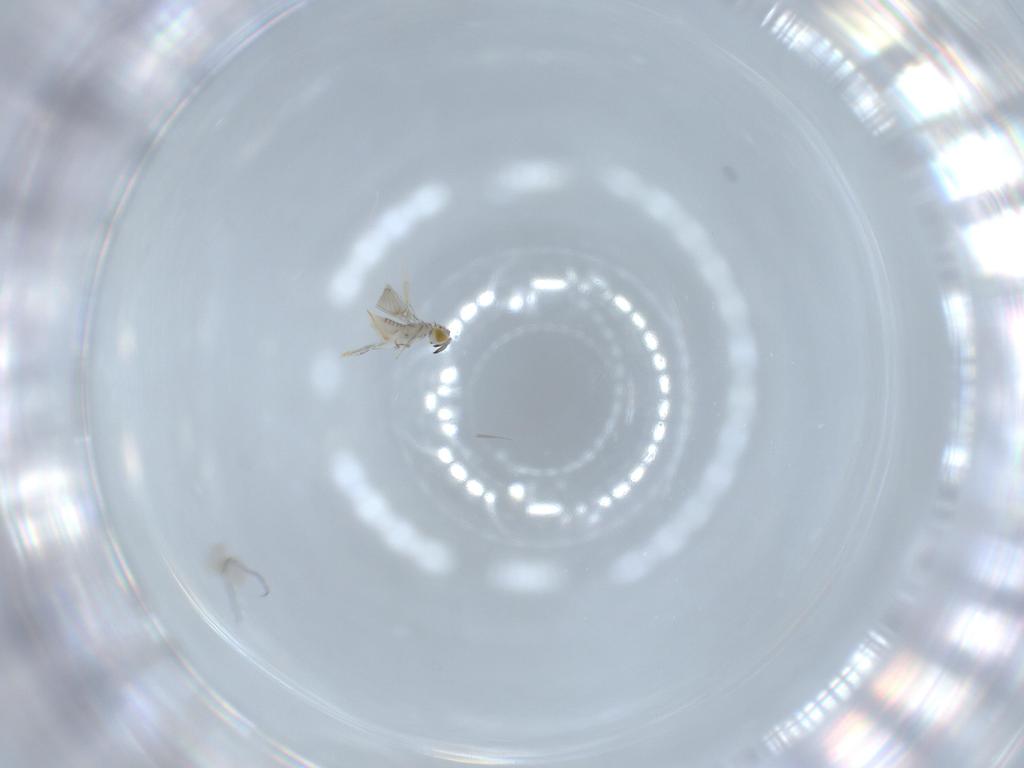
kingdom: Animalia
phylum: Arthropoda
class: Insecta
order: Hymenoptera
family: Aphelinidae
